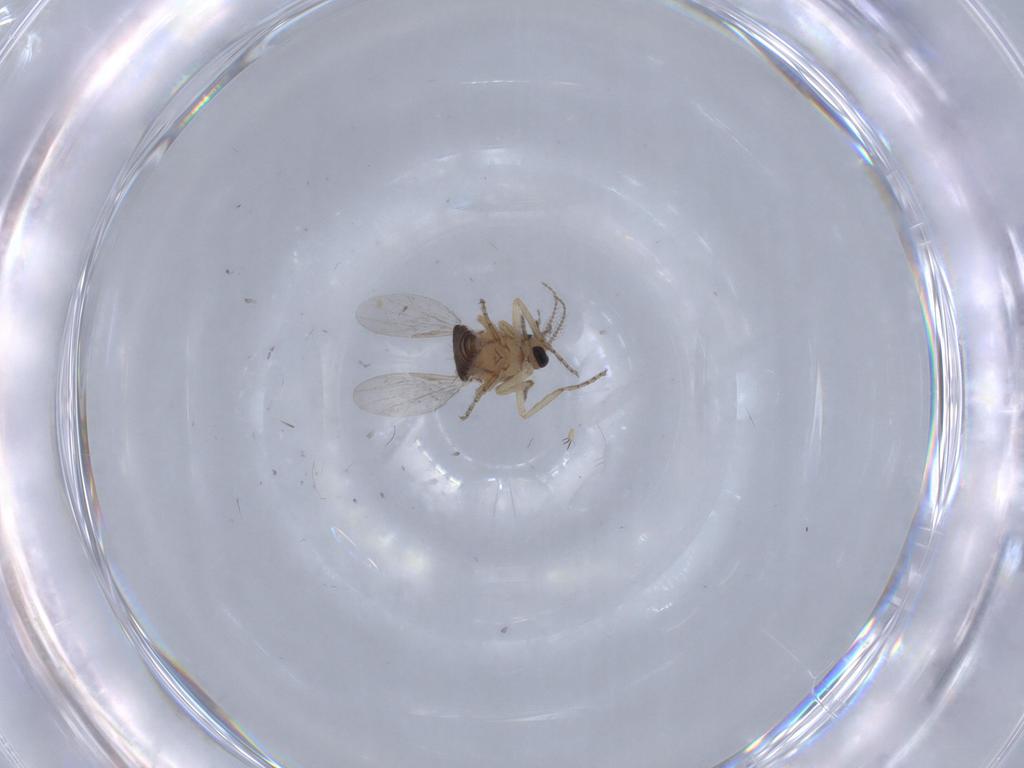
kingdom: Animalia
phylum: Arthropoda
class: Insecta
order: Diptera
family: Ceratopogonidae
